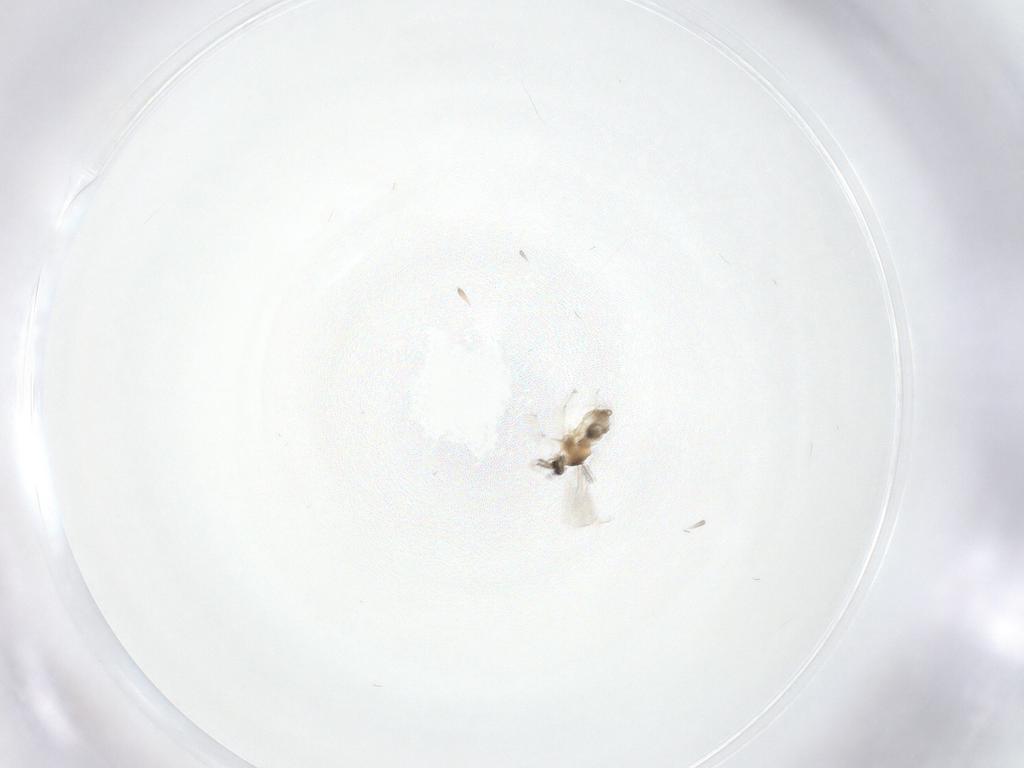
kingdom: Animalia
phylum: Arthropoda
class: Insecta
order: Diptera
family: Cecidomyiidae
